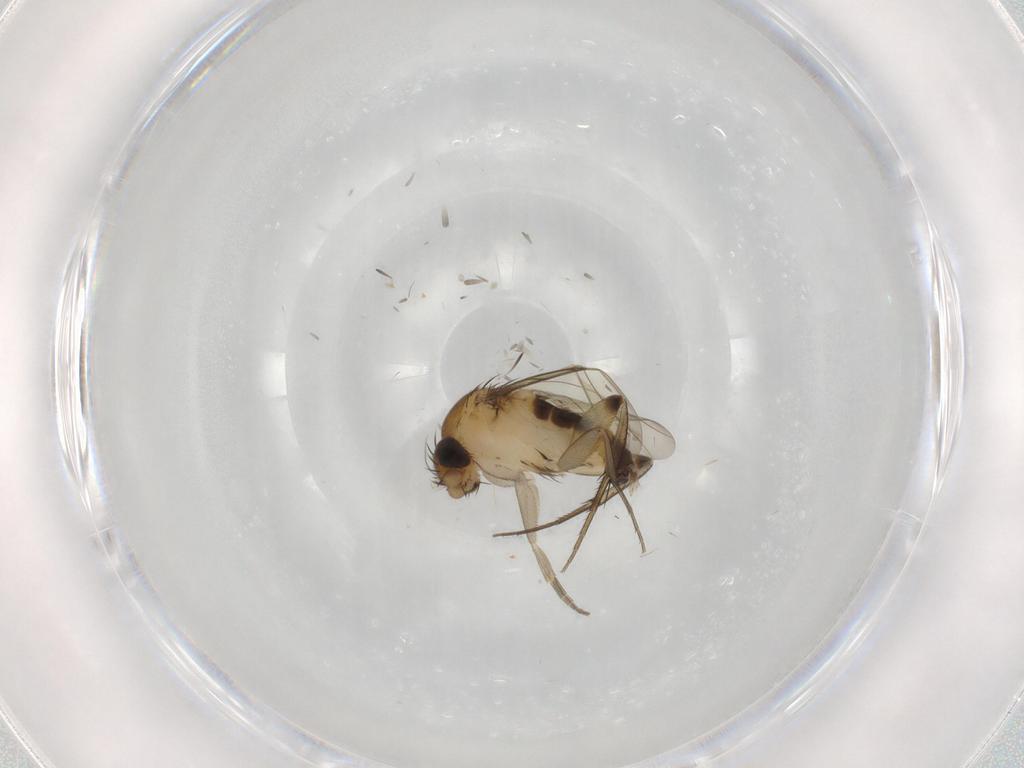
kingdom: Animalia
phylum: Arthropoda
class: Insecta
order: Diptera
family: Phoridae
